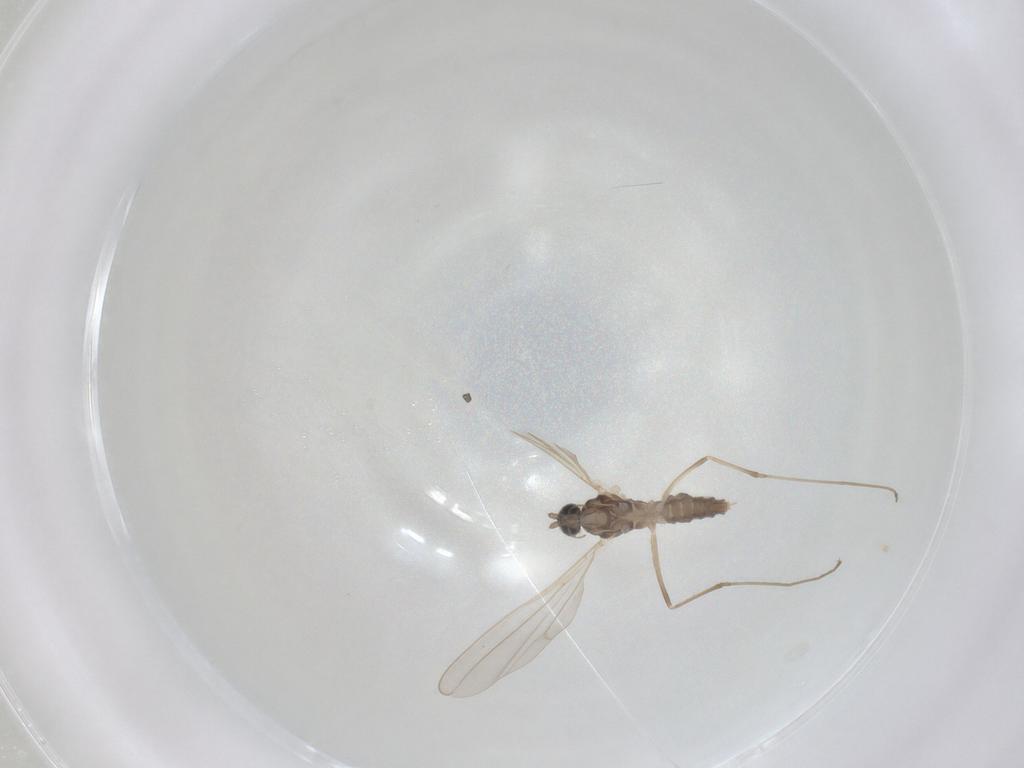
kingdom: Animalia
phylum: Arthropoda
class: Insecta
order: Diptera
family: Cecidomyiidae
